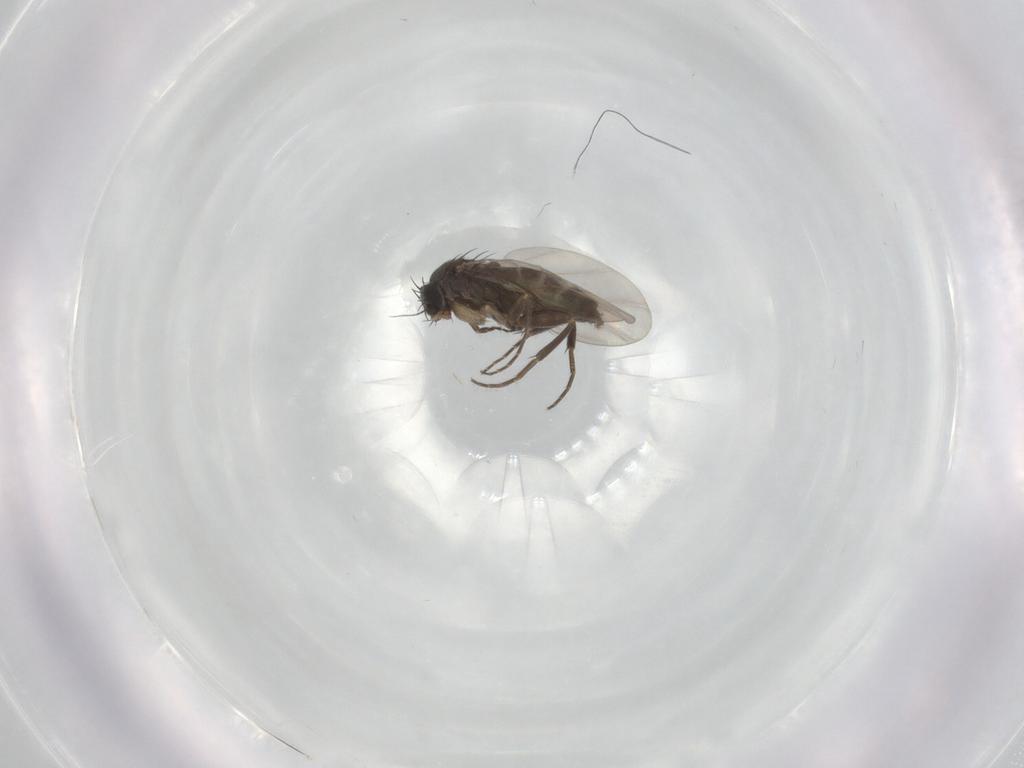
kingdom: Animalia
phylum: Arthropoda
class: Insecta
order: Diptera
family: Phoridae
